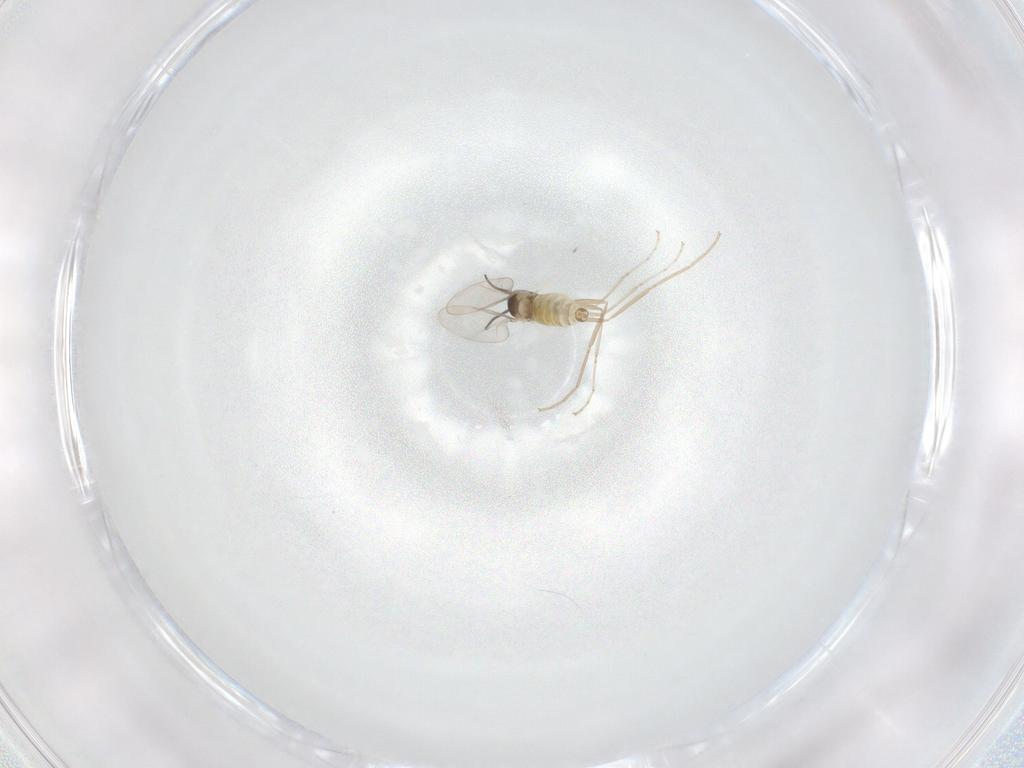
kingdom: Animalia
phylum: Arthropoda
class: Insecta
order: Diptera
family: Cecidomyiidae
